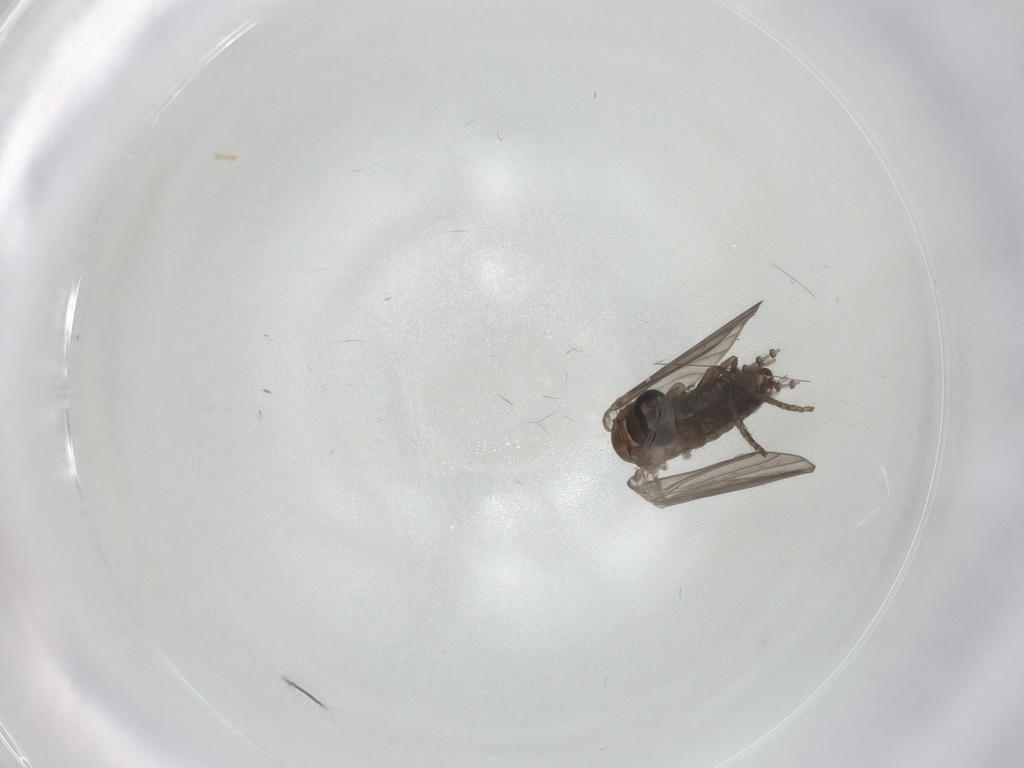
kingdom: Animalia
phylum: Arthropoda
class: Insecta
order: Diptera
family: Psychodidae
